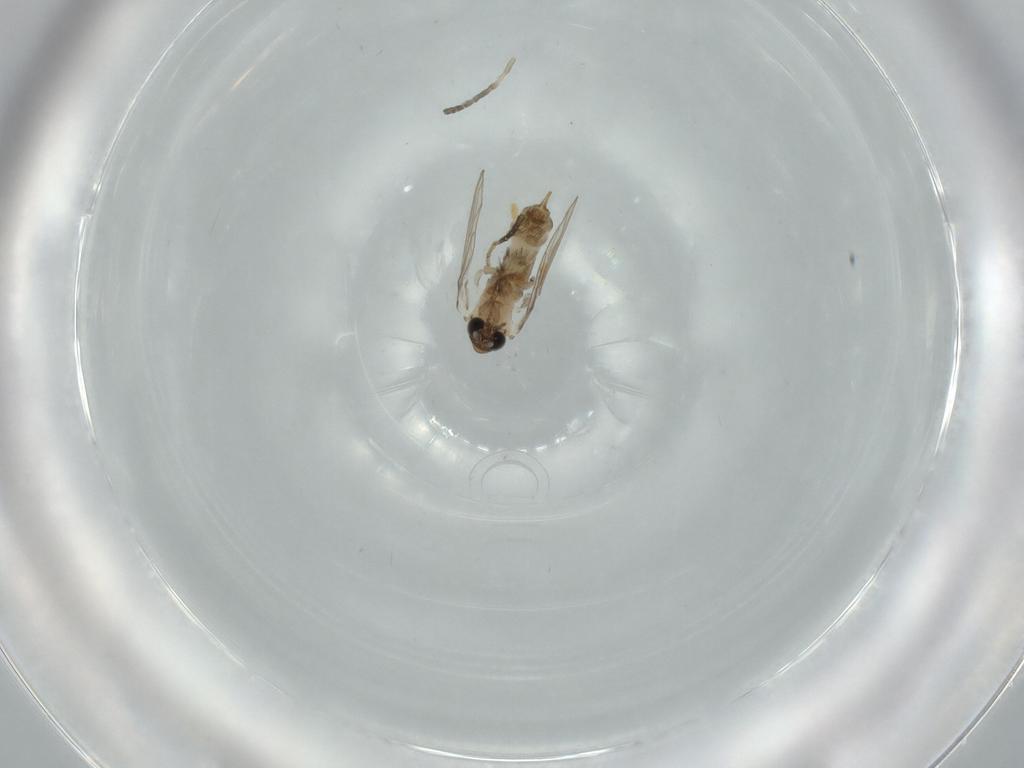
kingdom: Animalia
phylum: Arthropoda
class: Insecta
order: Diptera
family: Psychodidae
